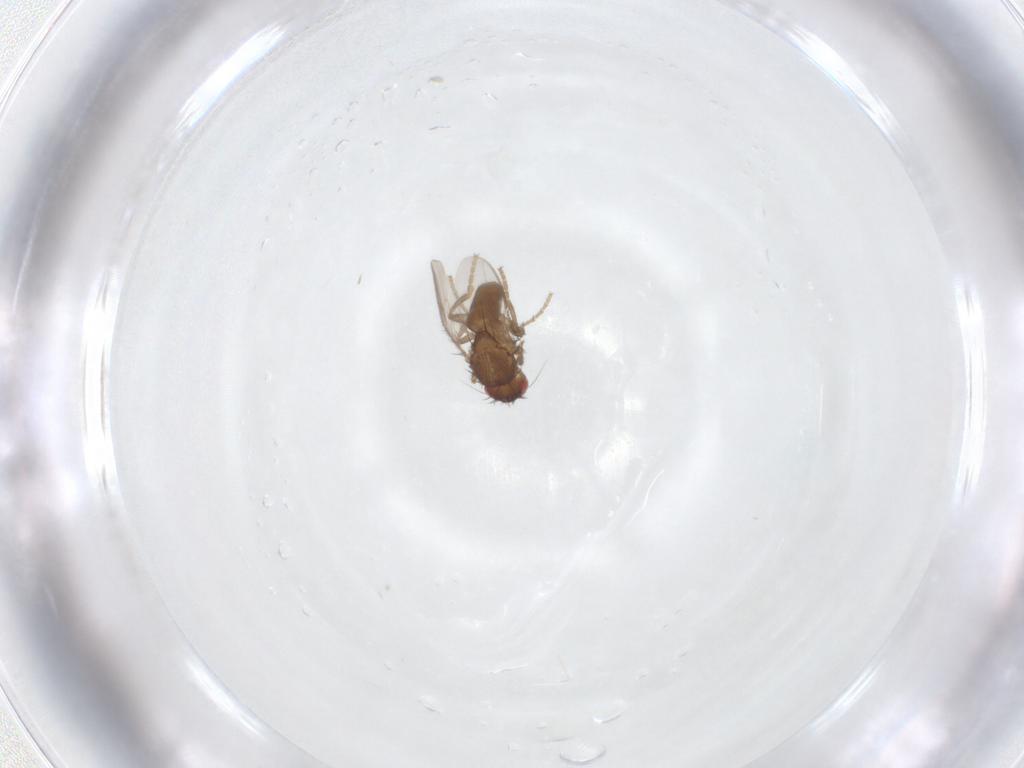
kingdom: Animalia
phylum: Arthropoda
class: Insecta
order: Diptera
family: Sphaeroceridae
